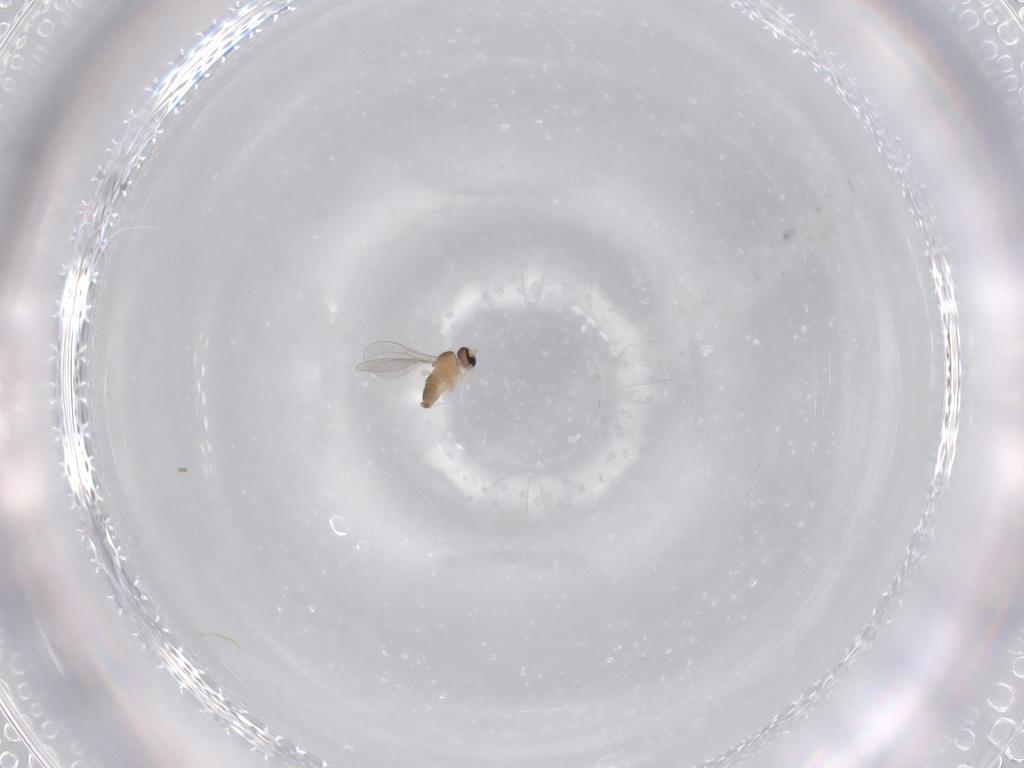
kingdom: Animalia
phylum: Arthropoda
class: Insecta
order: Diptera
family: Cecidomyiidae
